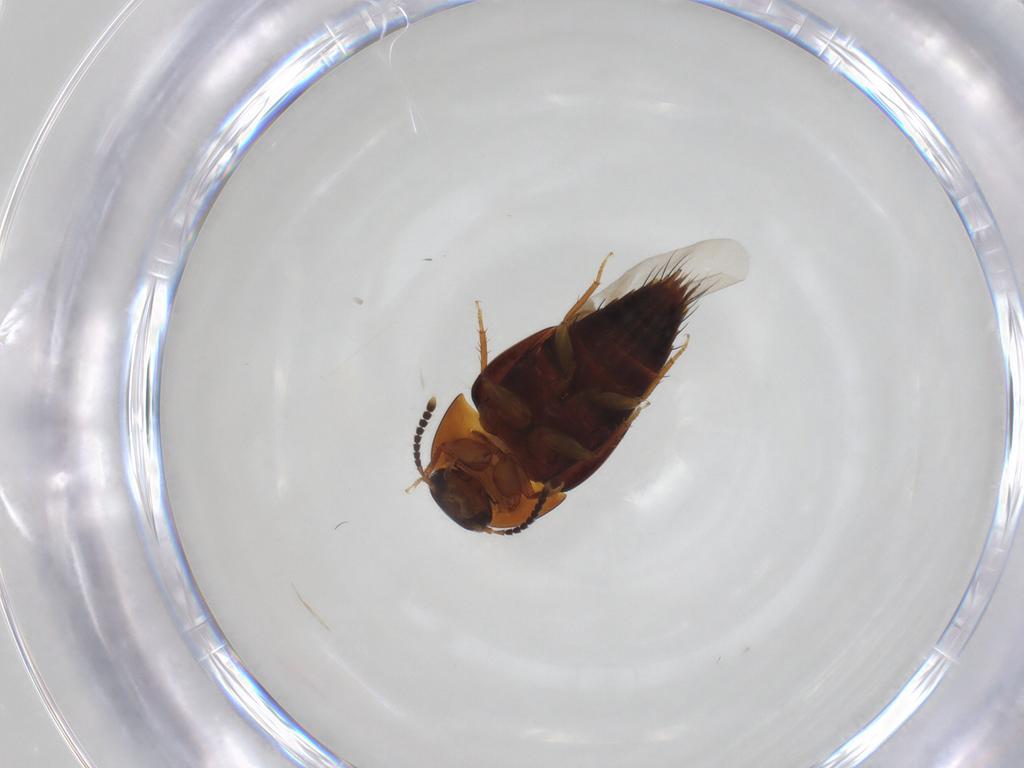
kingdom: Animalia
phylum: Arthropoda
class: Insecta
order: Coleoptera
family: Staphylinidae
